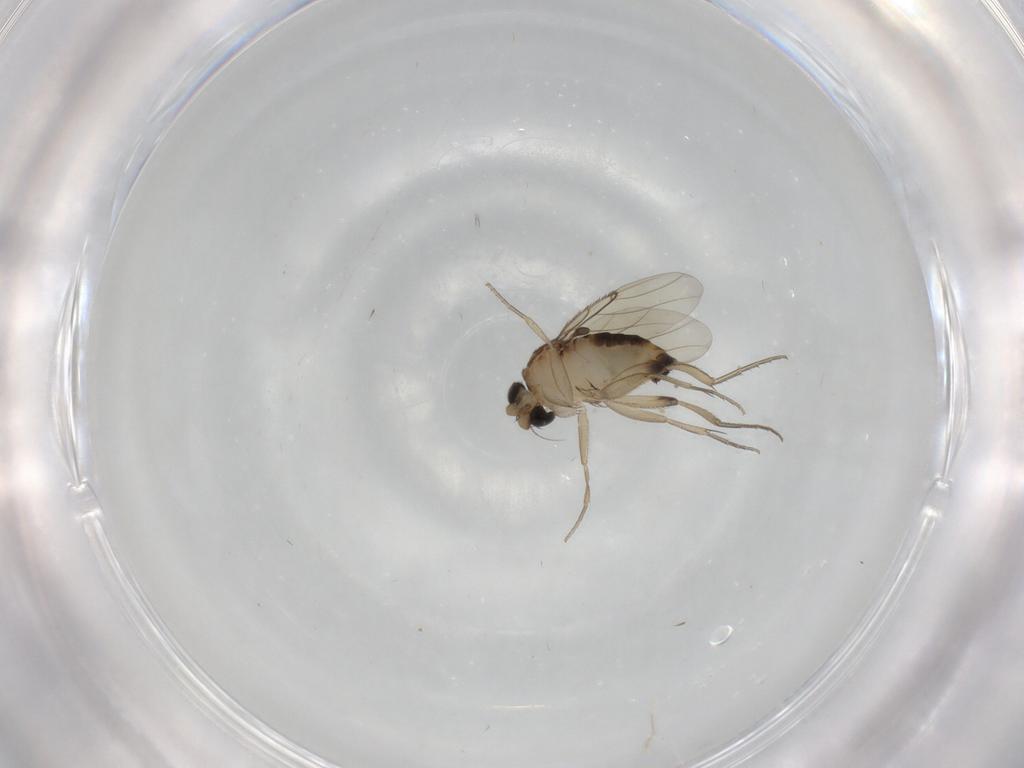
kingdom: Animalia
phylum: Arthropoda
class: Insecta
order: Diptera
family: Phoridae
